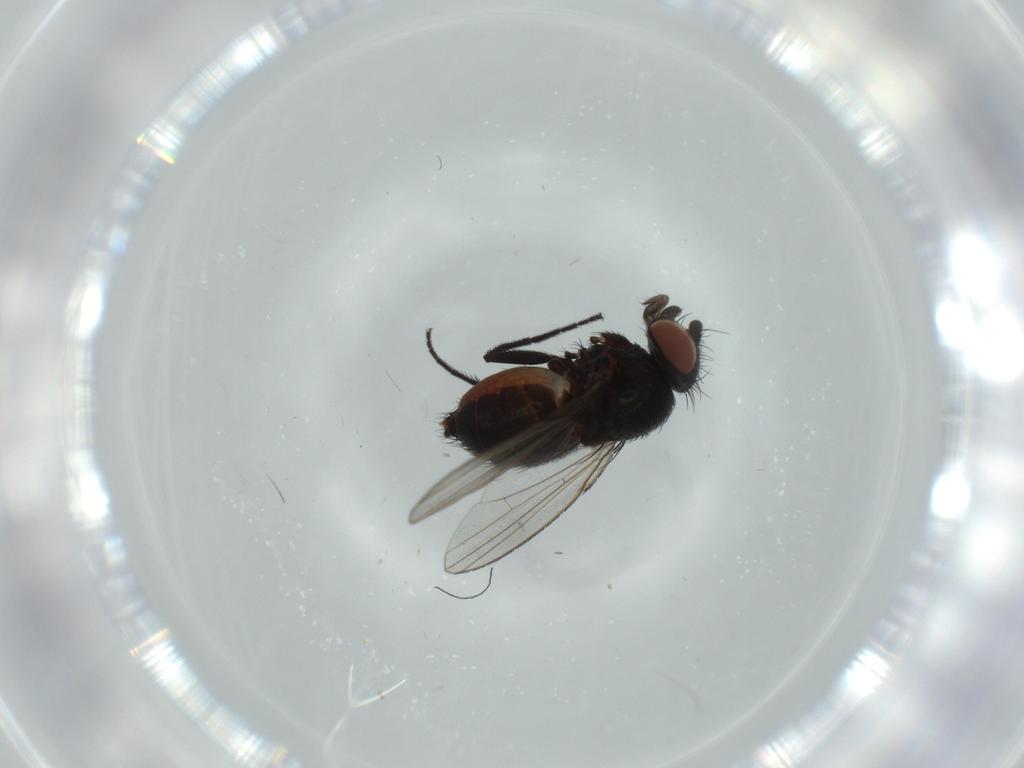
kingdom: Animalia
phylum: Arthropoda
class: Insecta
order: Diptera
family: Milichiidae
